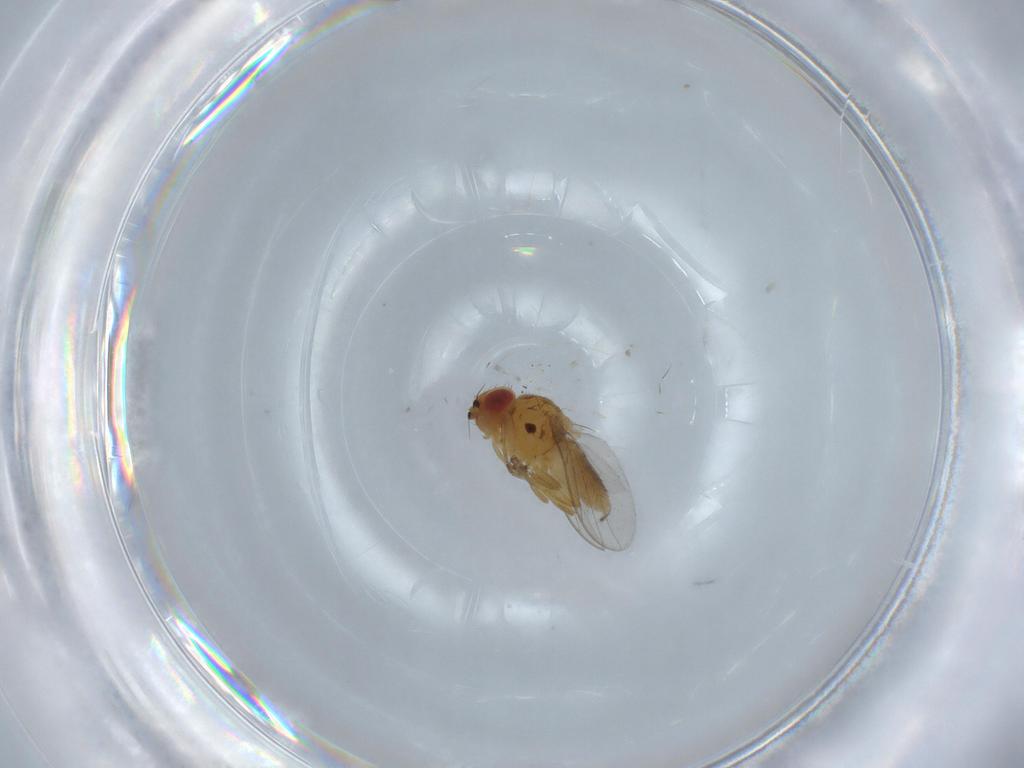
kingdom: Animalia
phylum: Arthropoda
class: Insecta
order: Diptera
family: Chloropidae
